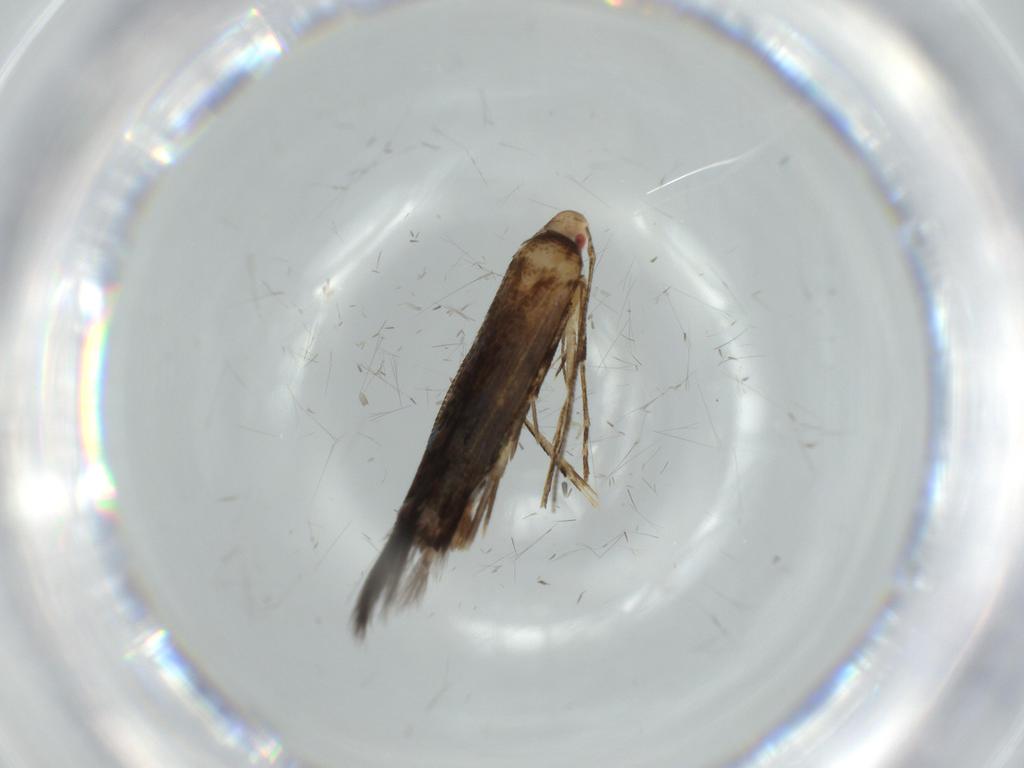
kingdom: Animalia
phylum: Arthropoda
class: Insecta
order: Lepidoptera
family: Cosmopterigidae
